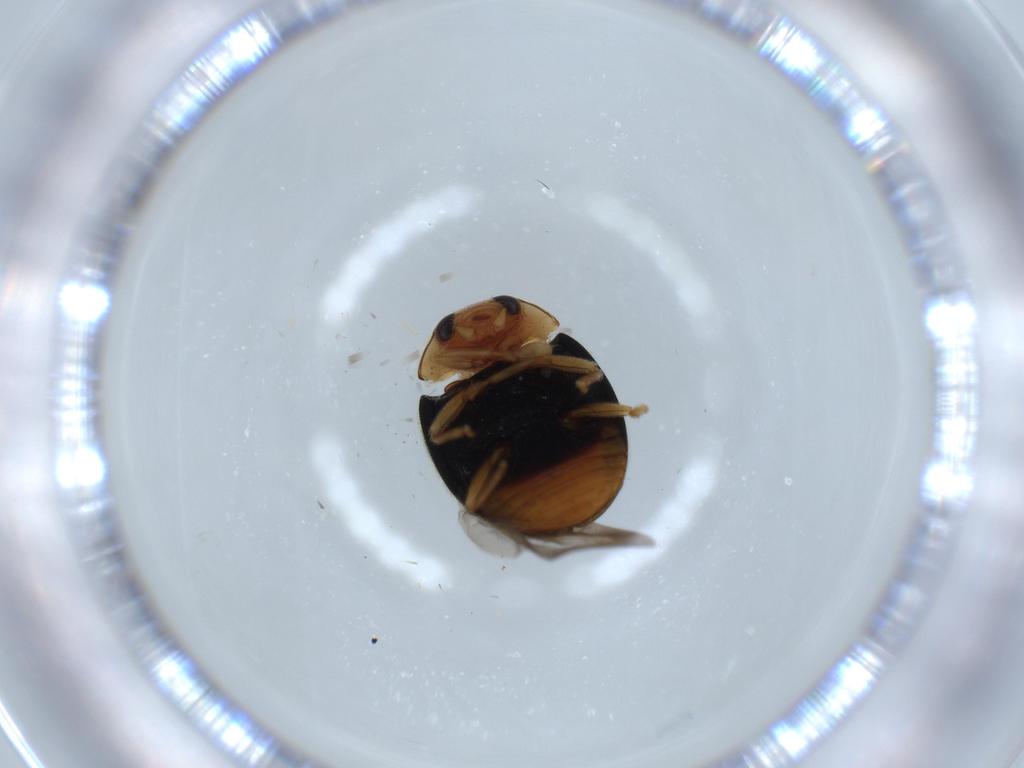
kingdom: Animalia
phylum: Arthropoda
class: Insecta
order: Coleoptera
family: Coccinellidae
